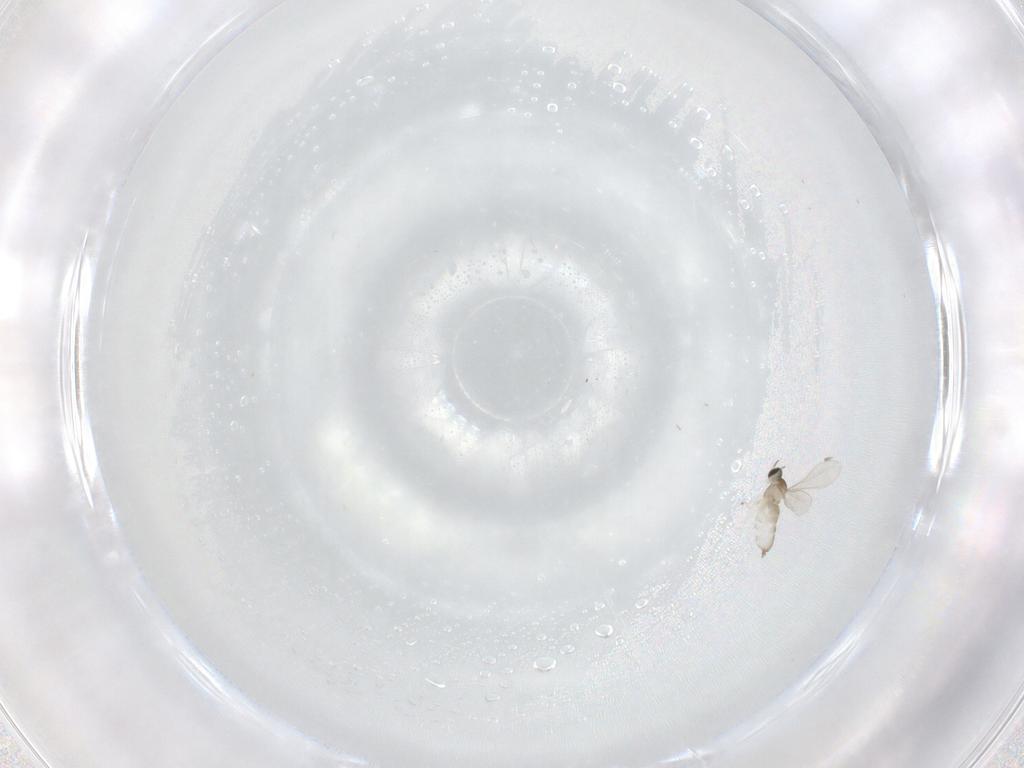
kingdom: Animalia
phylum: Arthropoda
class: Insecta
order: Diptera
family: Cecidomyiidae
